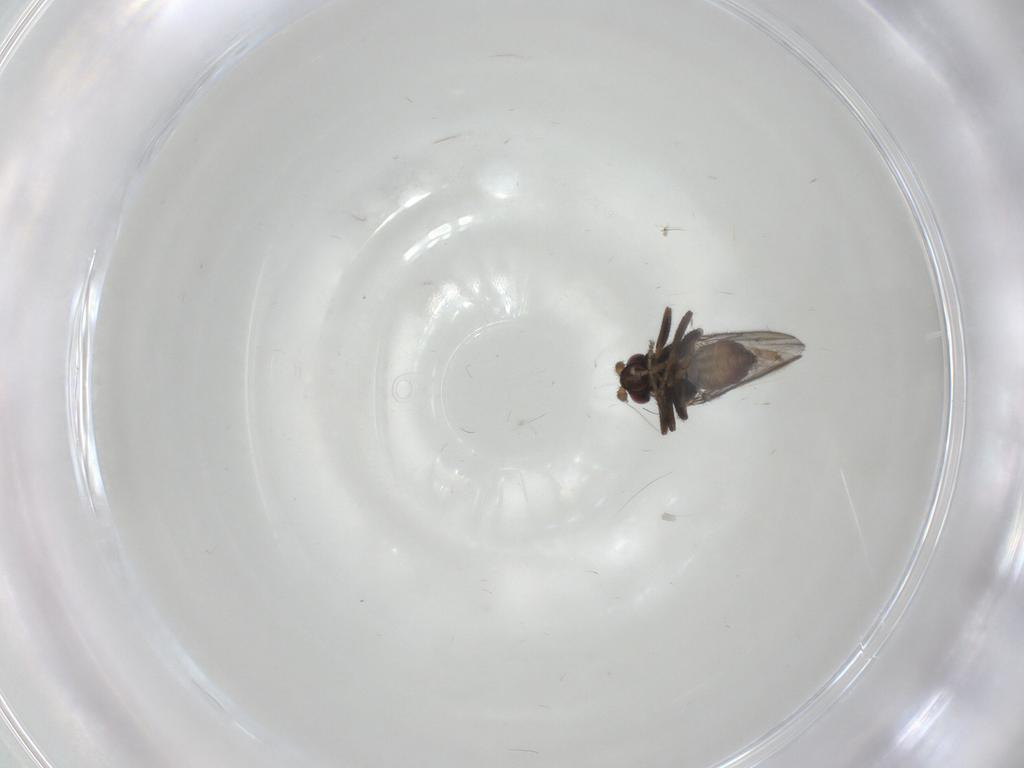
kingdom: Animalia
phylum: Arthropoda
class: Insecta
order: Diptera
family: Sphaeroceridae
